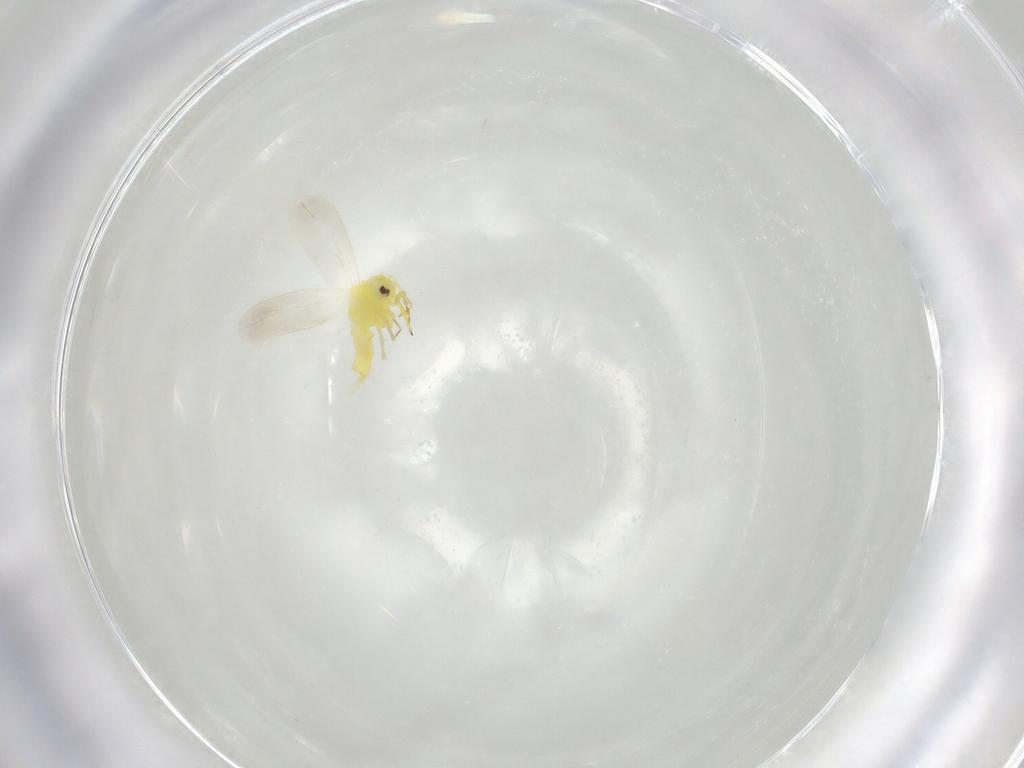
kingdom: Animalia
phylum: Arthropoda
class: Insecta
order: Hemiptera
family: Aleyrodidae
